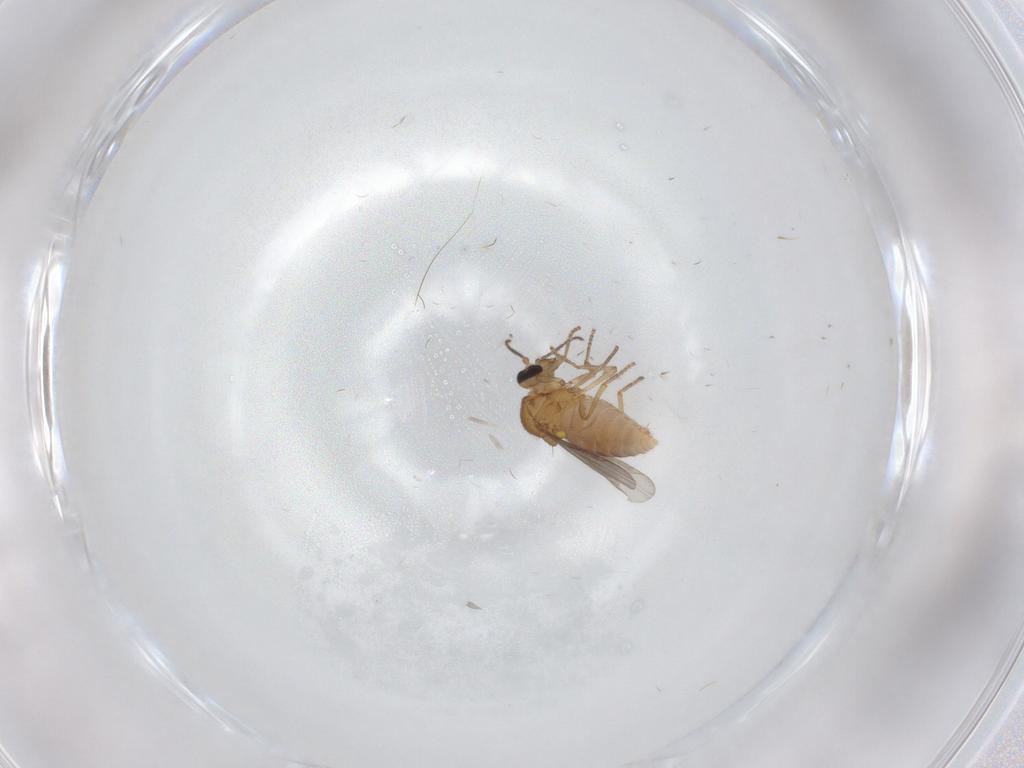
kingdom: Animalia
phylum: Arthropoda
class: Insecta
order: Diptera
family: Ceratopogonidae
